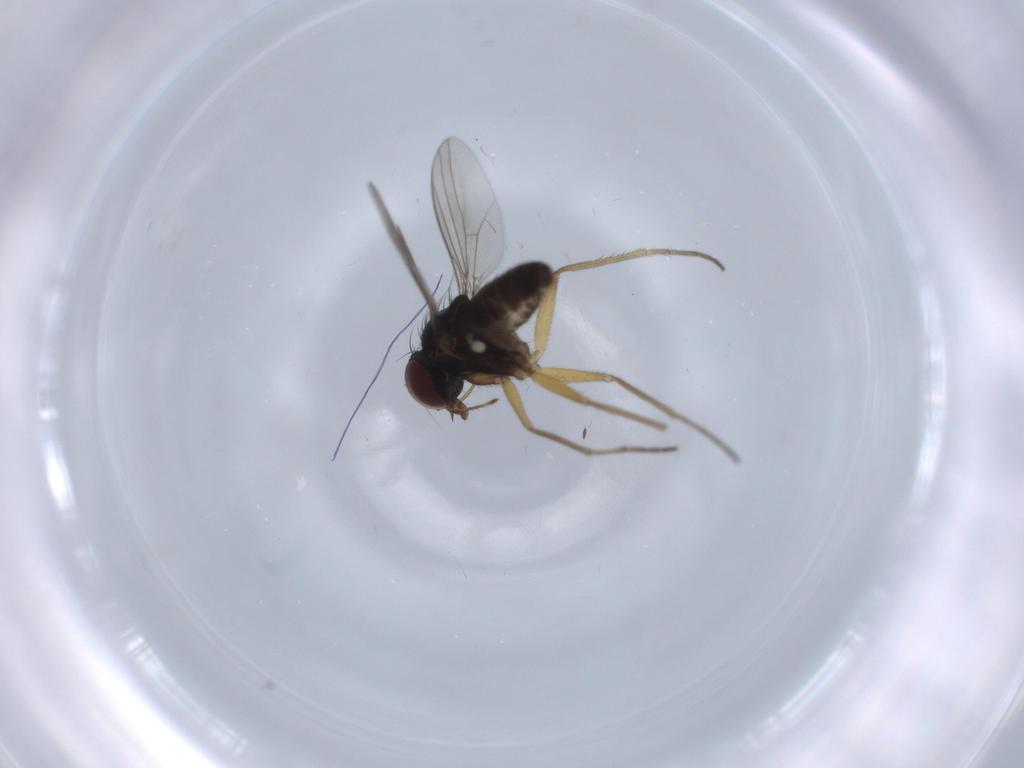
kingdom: Animalia
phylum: Arthropoda
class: Insecta
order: Diptera
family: Dolichopodidae
